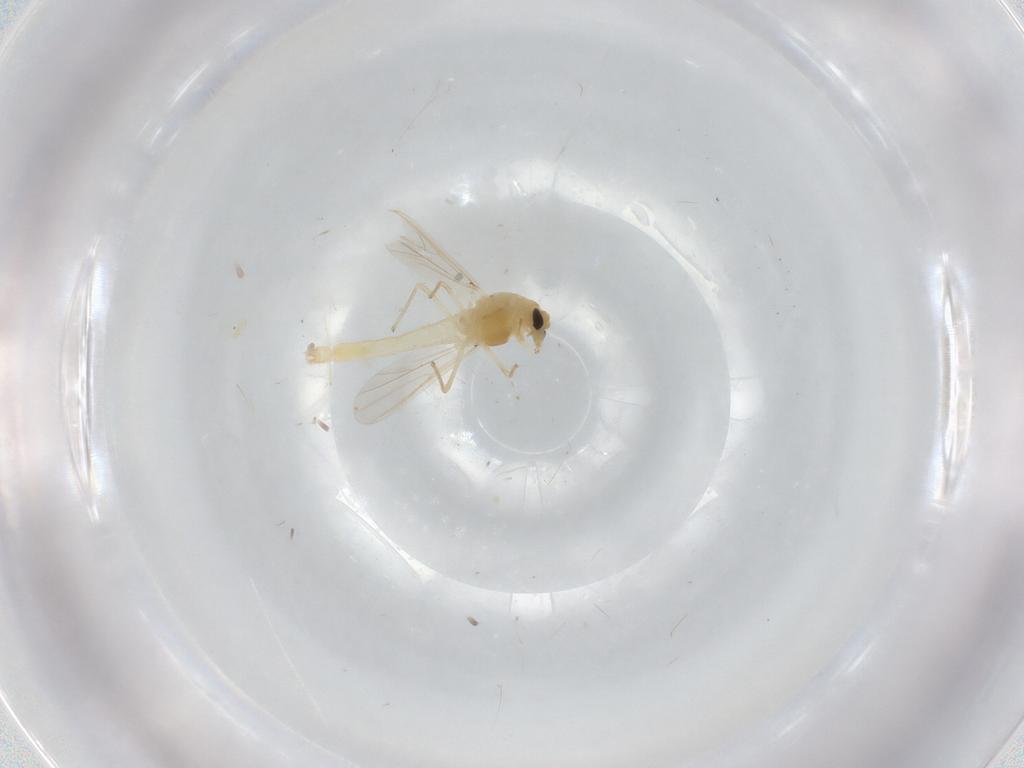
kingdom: Animalia
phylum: Arthropoda
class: Insecta
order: Diptera
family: Chironomidae
